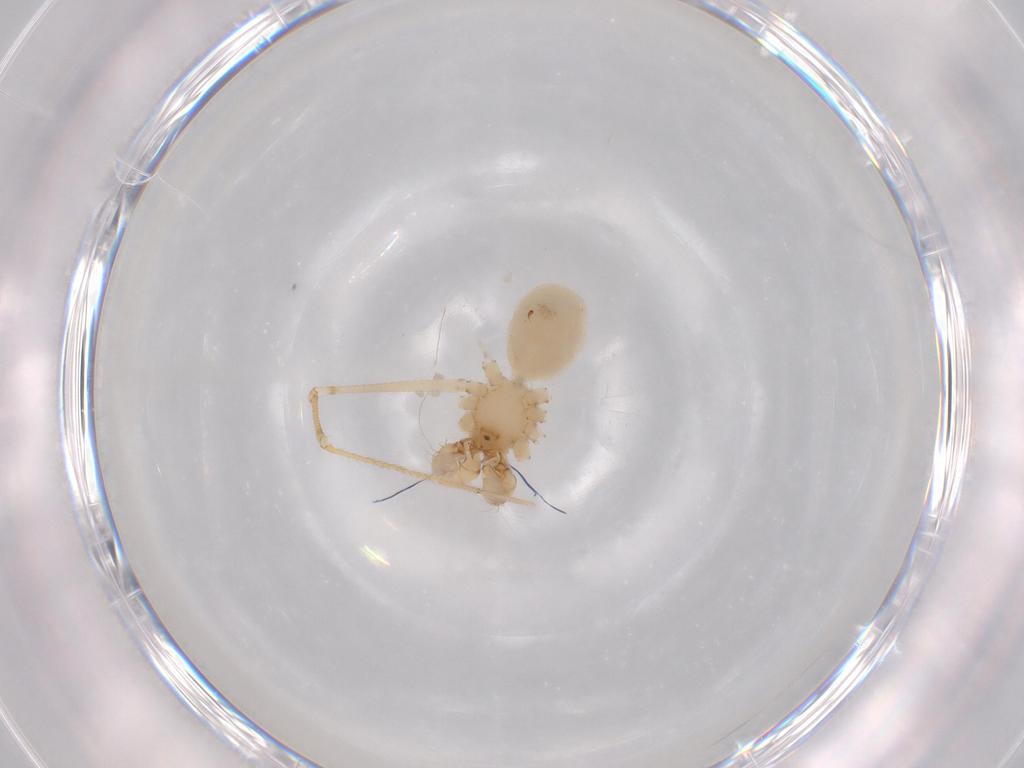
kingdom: Animalia
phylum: Arthropoda
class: Arachnida
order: Araneae
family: Pholcidae
